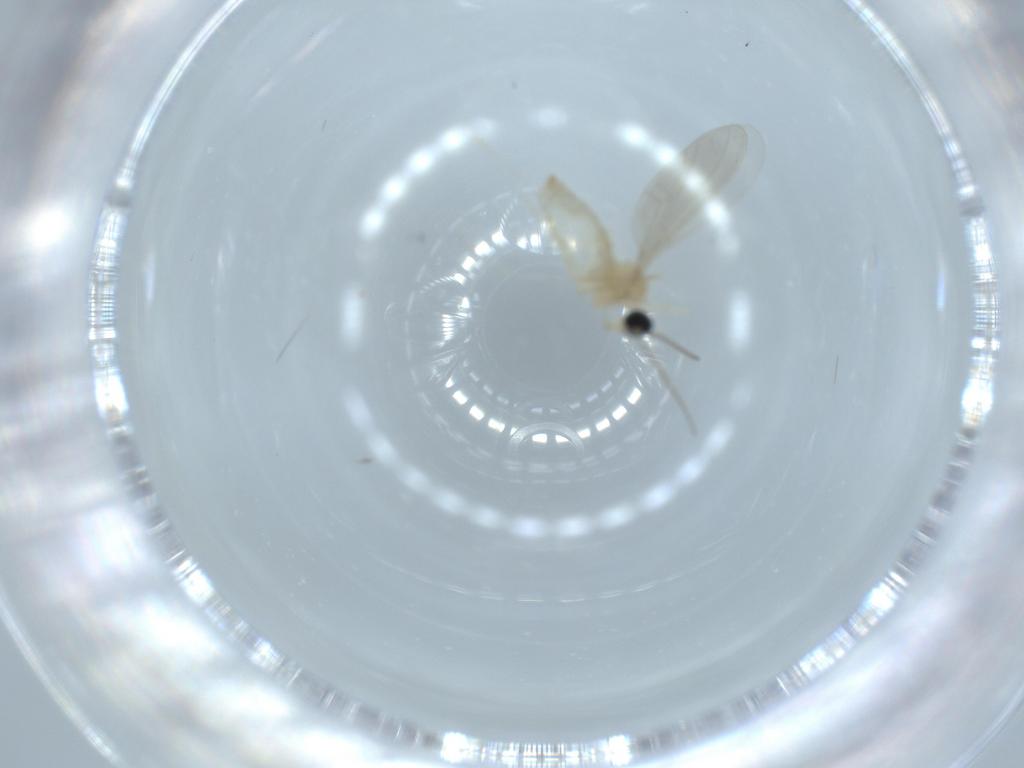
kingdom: Animalia
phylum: Arthropoda
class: Insecta
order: Diptera
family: Cecidomyiidae
